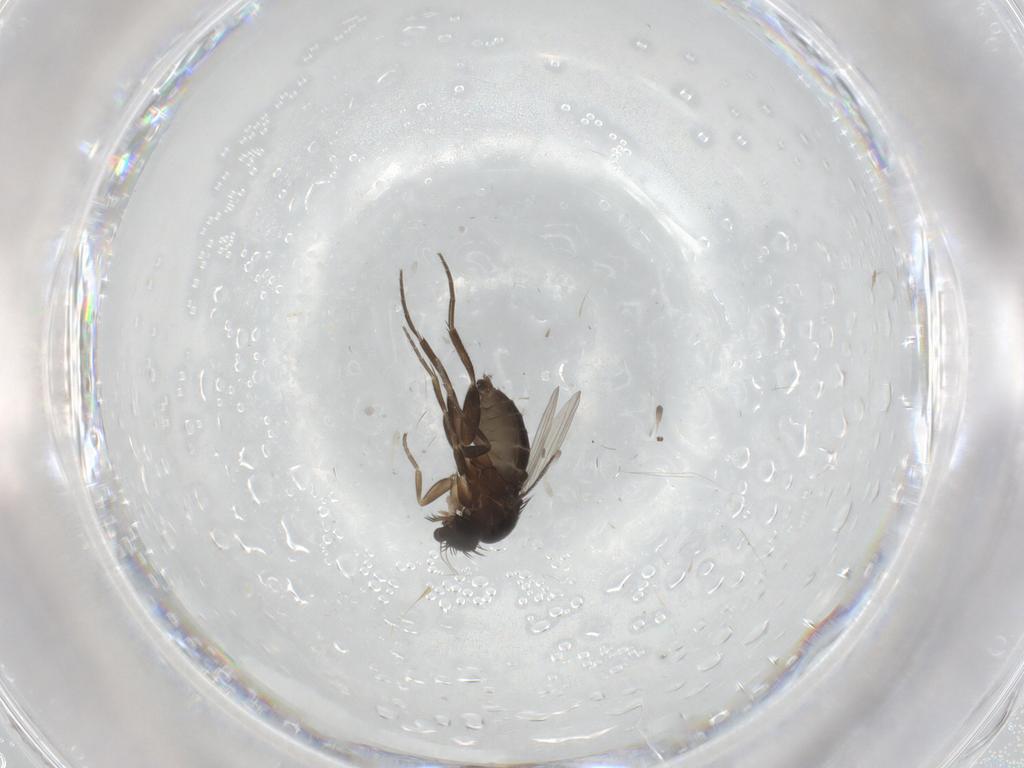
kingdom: Animalia
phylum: Arthropoda
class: Insecta
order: Diptera
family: Phoridae
